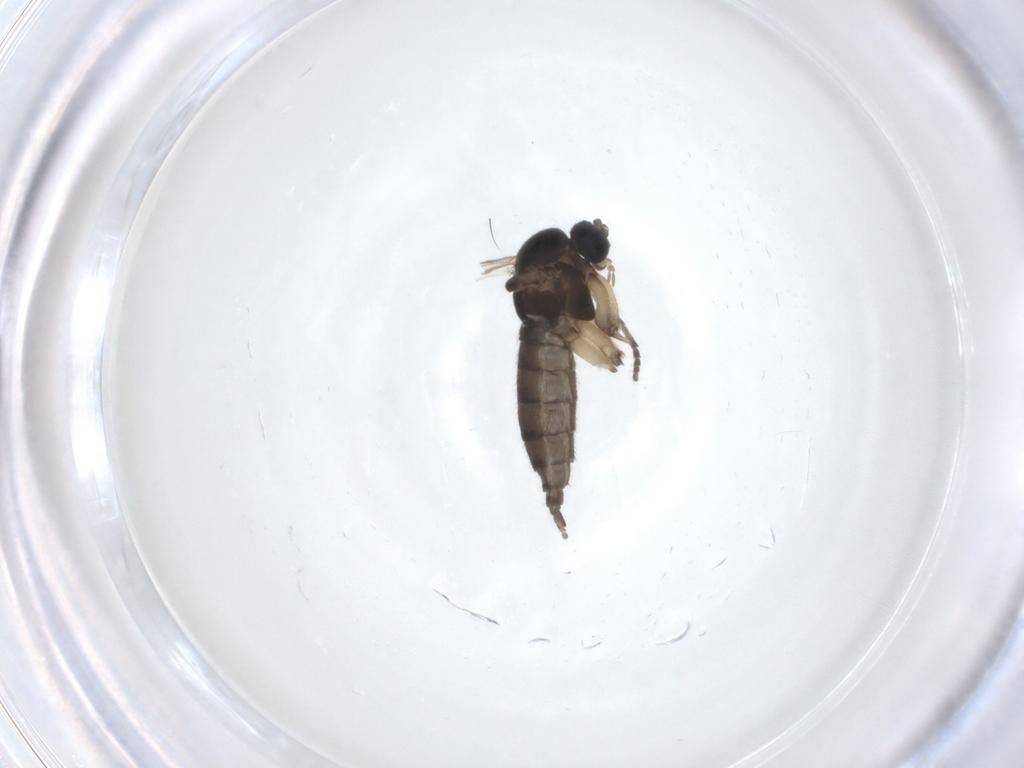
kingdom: Animalia
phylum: Arthropoda
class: Insecta
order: Diptera
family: Sciaridae
